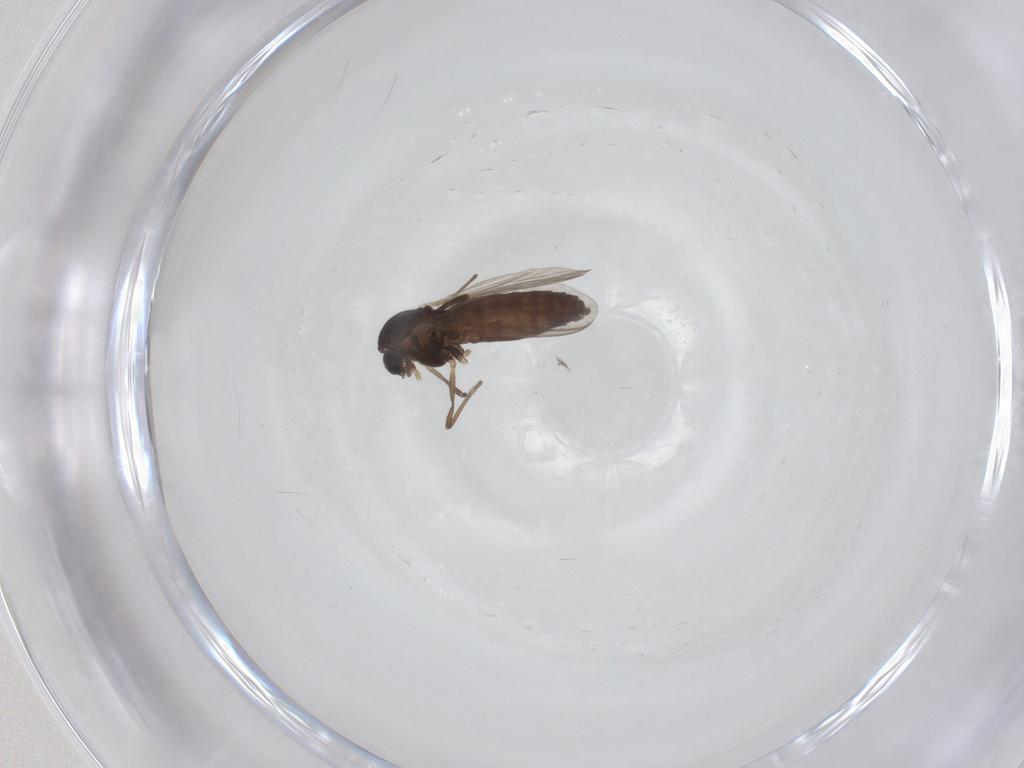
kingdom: Animalia
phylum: Arthropoda
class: Insecta
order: Diptera
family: Chironomidae
